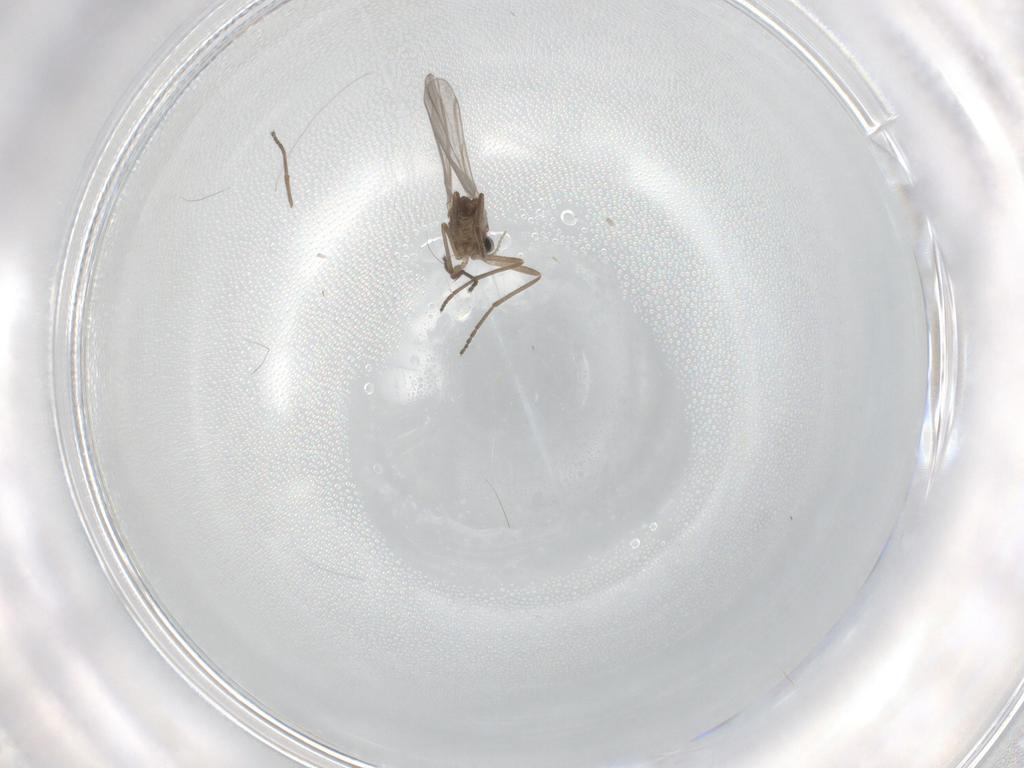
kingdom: Animalia
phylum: Arthropoda
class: Insecta
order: Diptera
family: Cecidomyiidae
